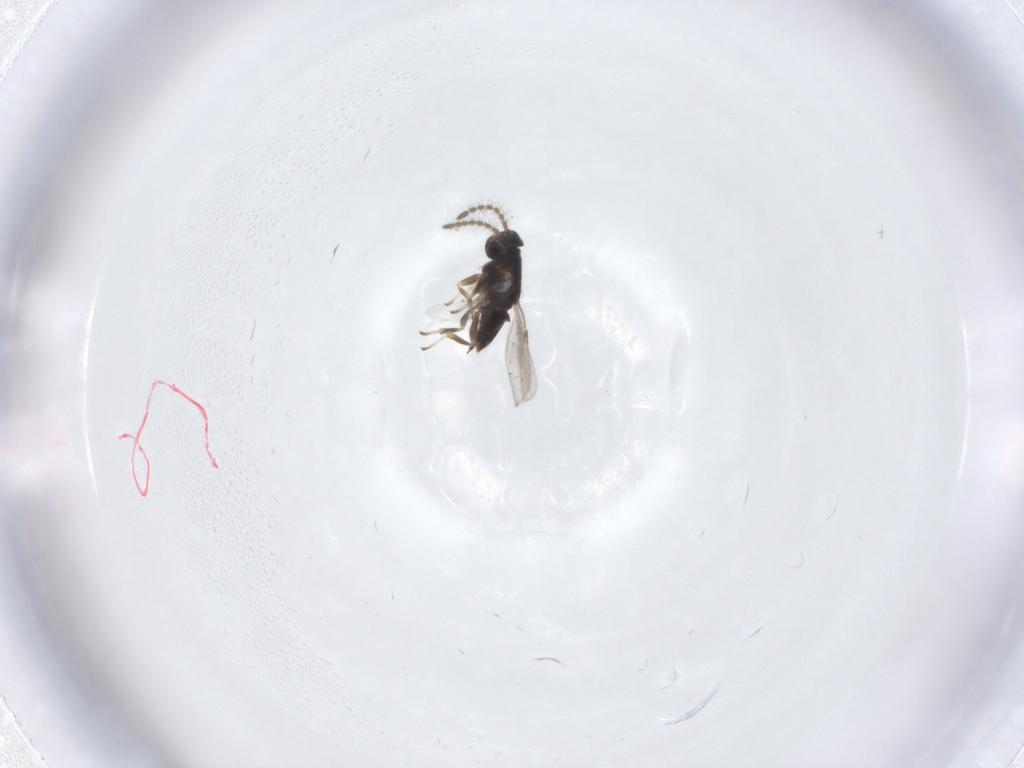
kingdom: Animalia
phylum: Arthropoda
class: Insecta
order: Hymenoptera
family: Encyrtidae
